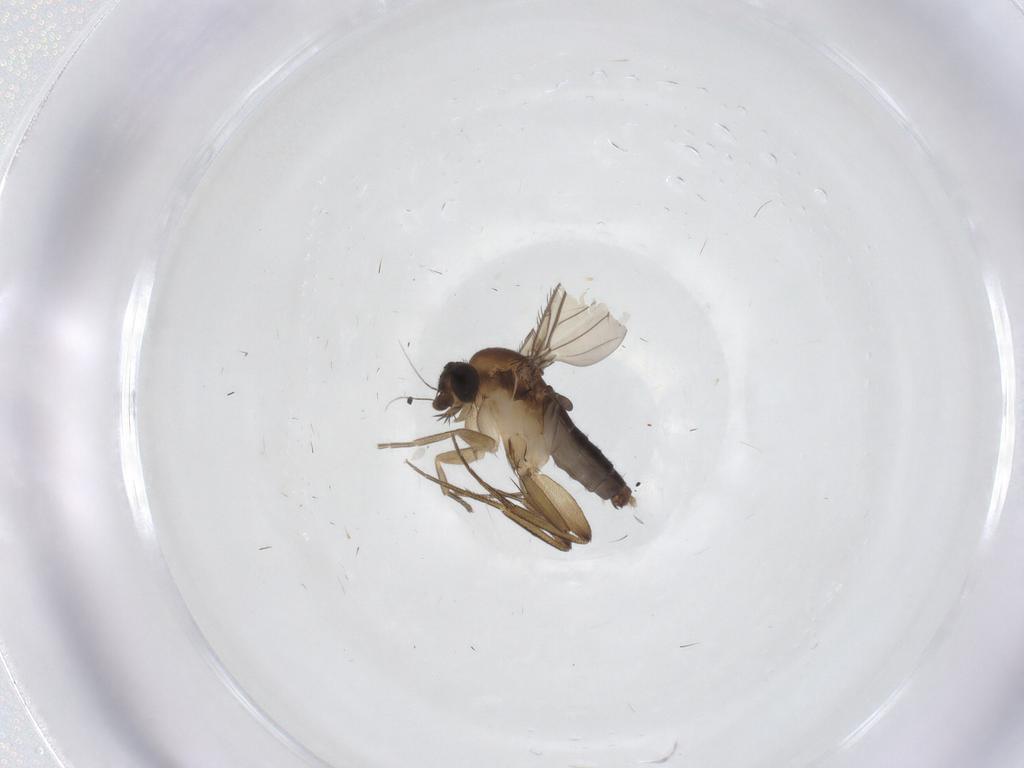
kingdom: Animalia
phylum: Arthropoda
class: Insecta
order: Diptera
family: Phoridae
